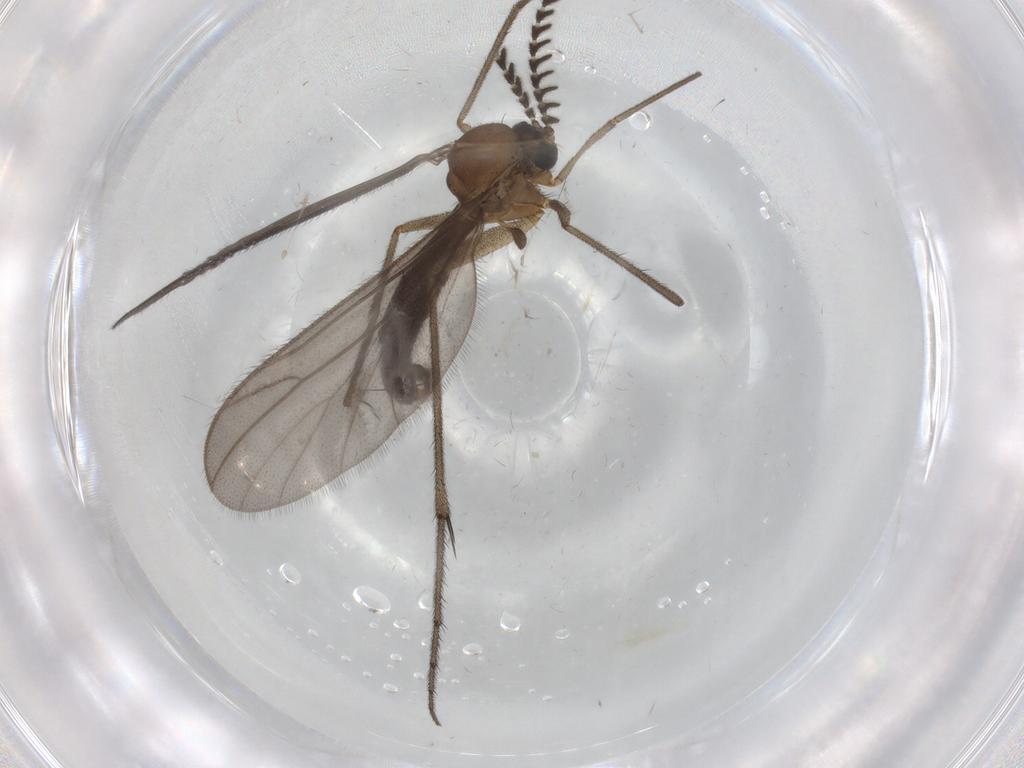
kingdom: Animalia
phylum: Arthropoda
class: Insecta
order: Diptera
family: Ditomyiidae
